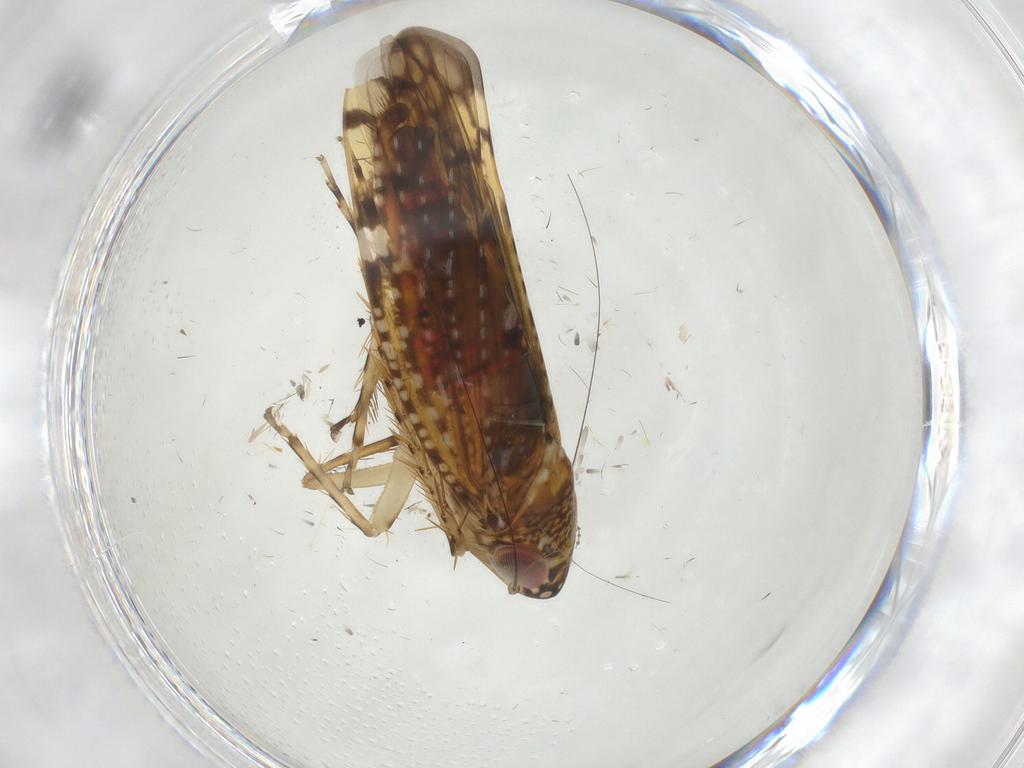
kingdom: Animalia
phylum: Arthropoda
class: Insecta
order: Hemiptera
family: Cicadellidae
